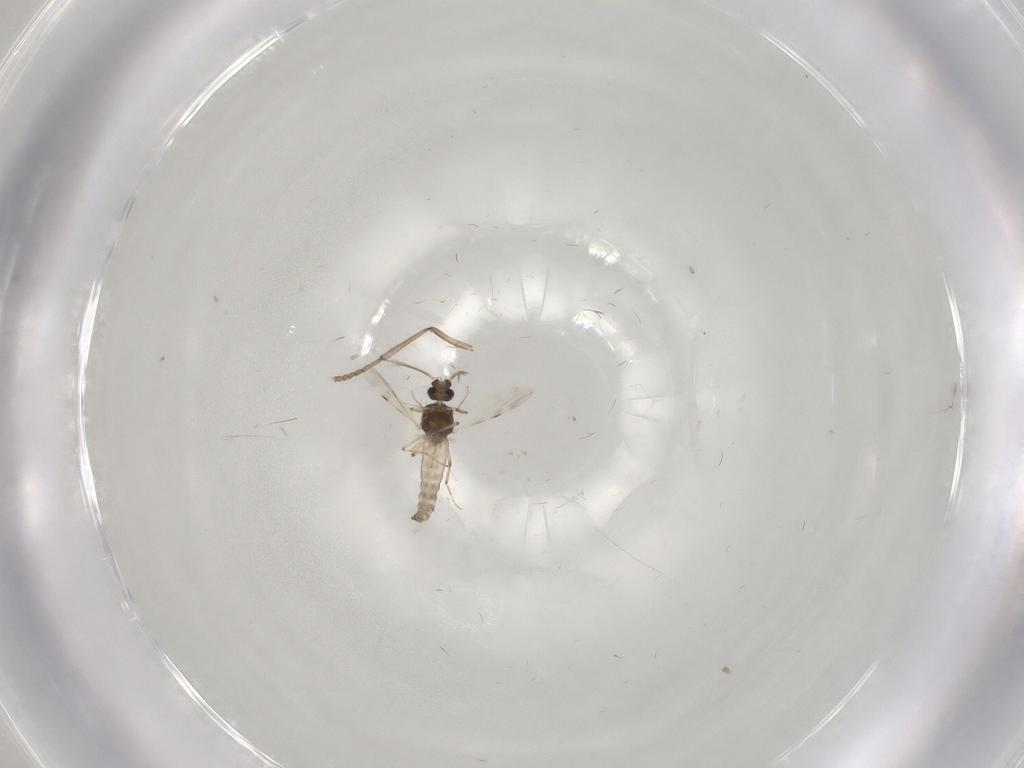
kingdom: Animalia
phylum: Arthropoda
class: Insecta
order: Diptera
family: Psychodidae
